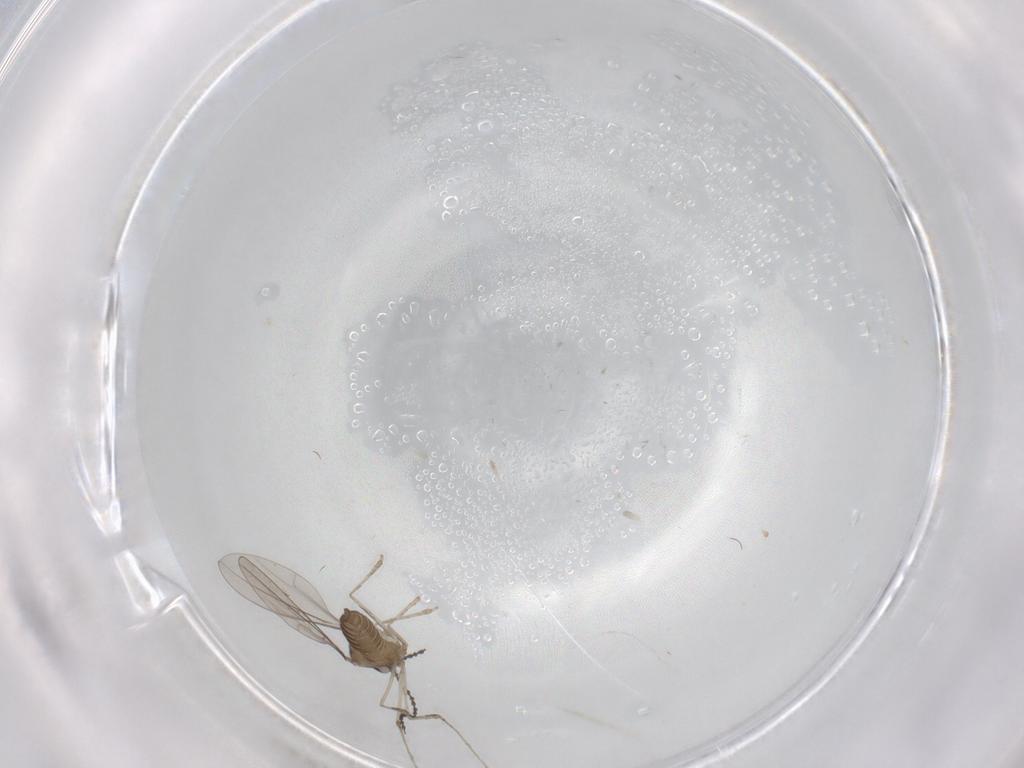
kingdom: Animalia
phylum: Arthropoda
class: Insecta
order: Diptera
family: Cecidomyiidae
